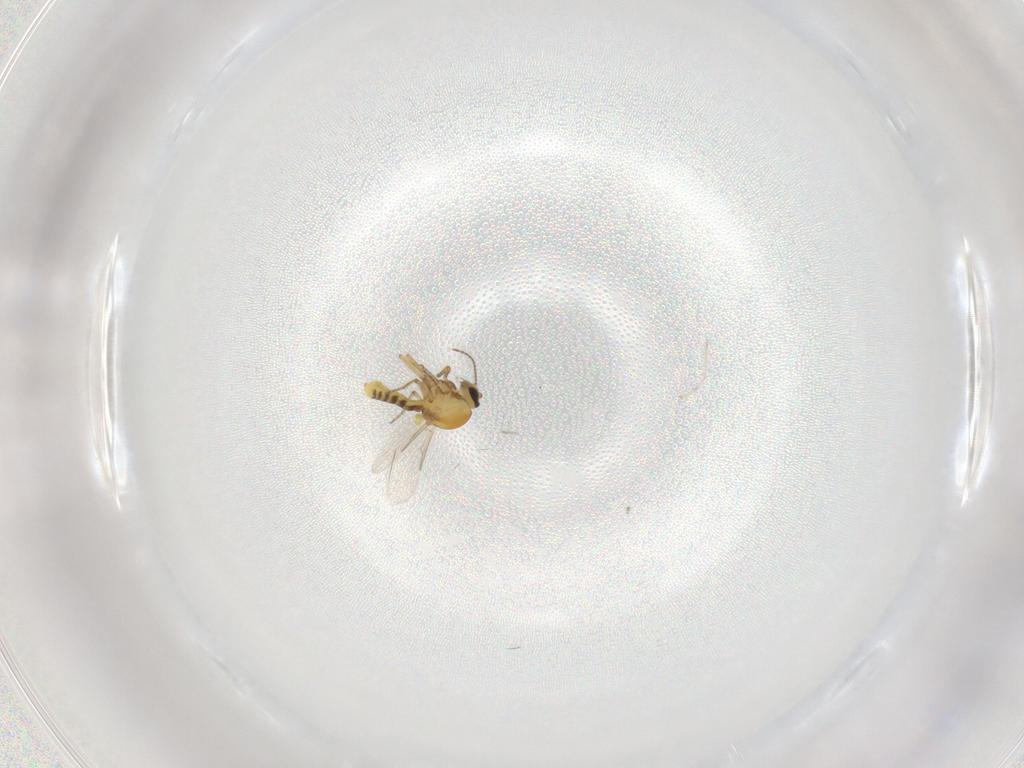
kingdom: Animalia
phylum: Arthropoda
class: Insecta
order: Diptera
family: Ceratopogonidae
